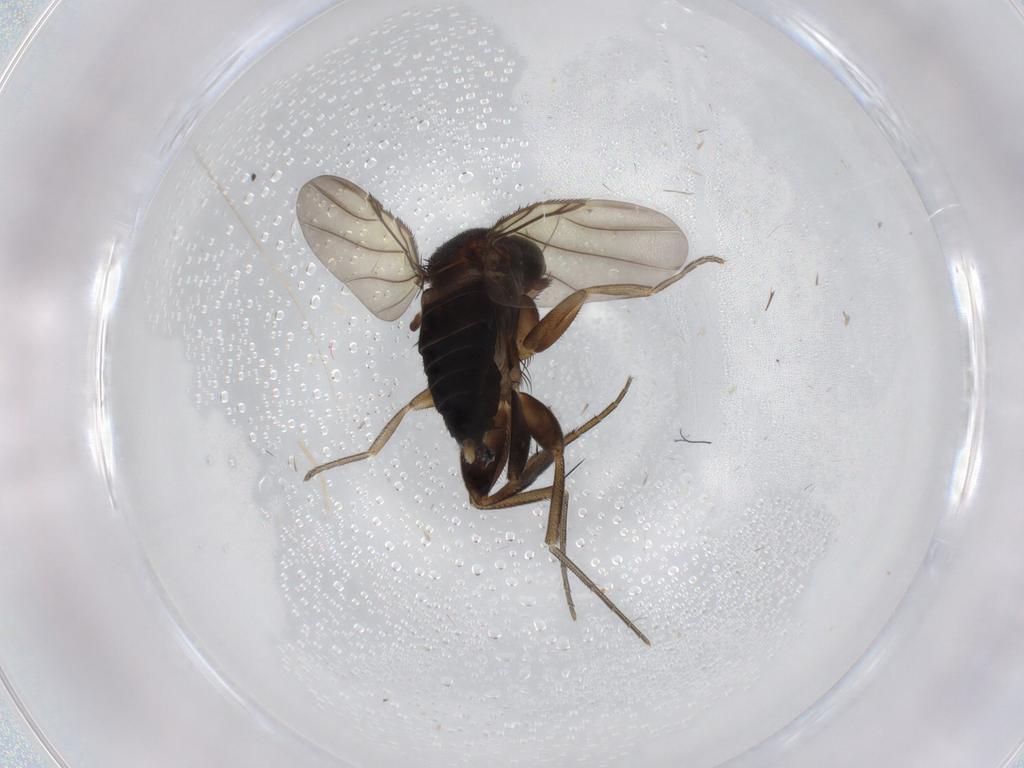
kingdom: Animalia
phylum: Arthropoda
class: Insecta
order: Diptera
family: Phoridae
